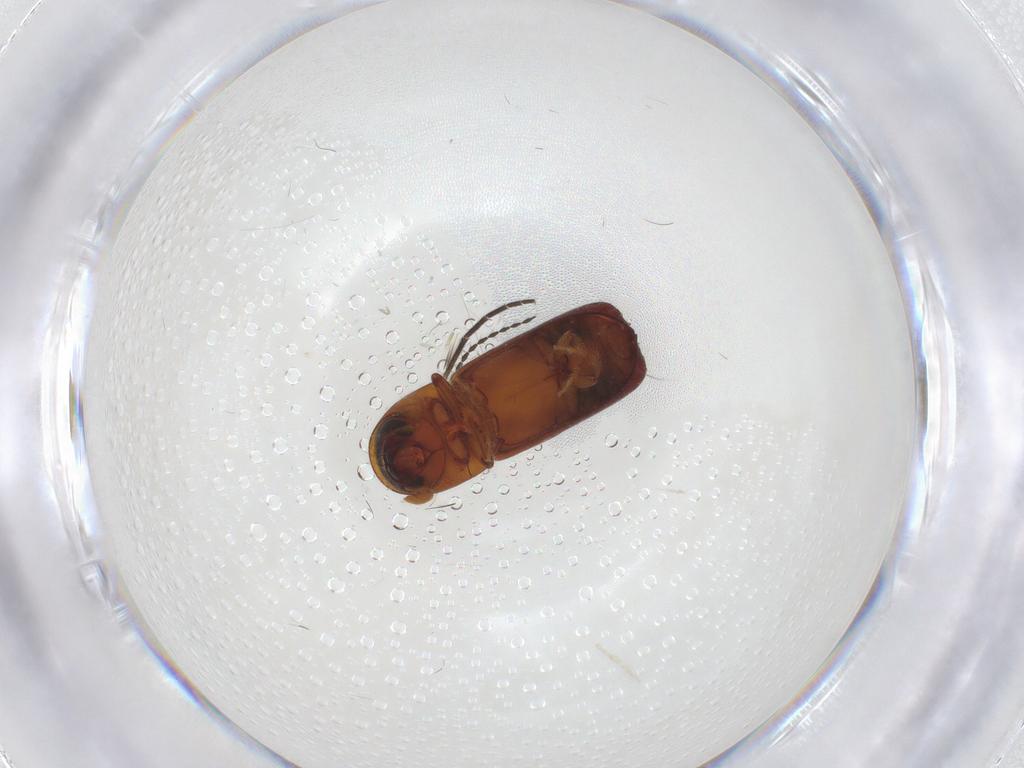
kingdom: Animalia
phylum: Arthropoda
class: Insecta
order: Coleoptera
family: Curculionidae
